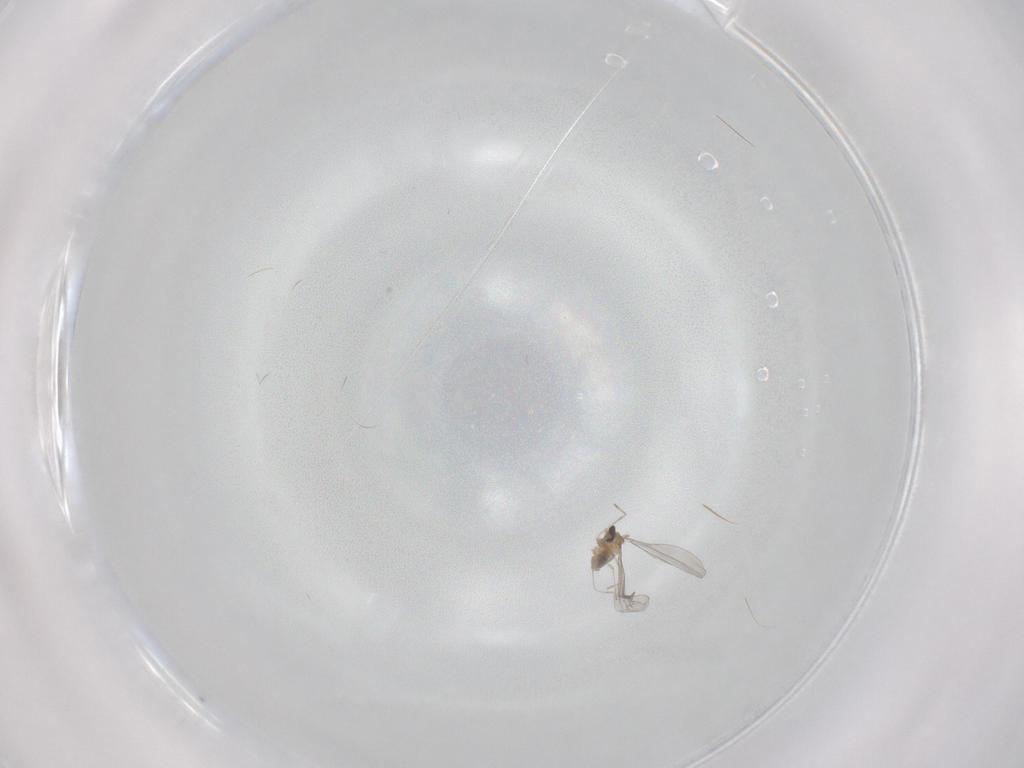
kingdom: Animalia
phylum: Arthropoda
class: Insecta
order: Diptera
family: Cecidomyiidae
